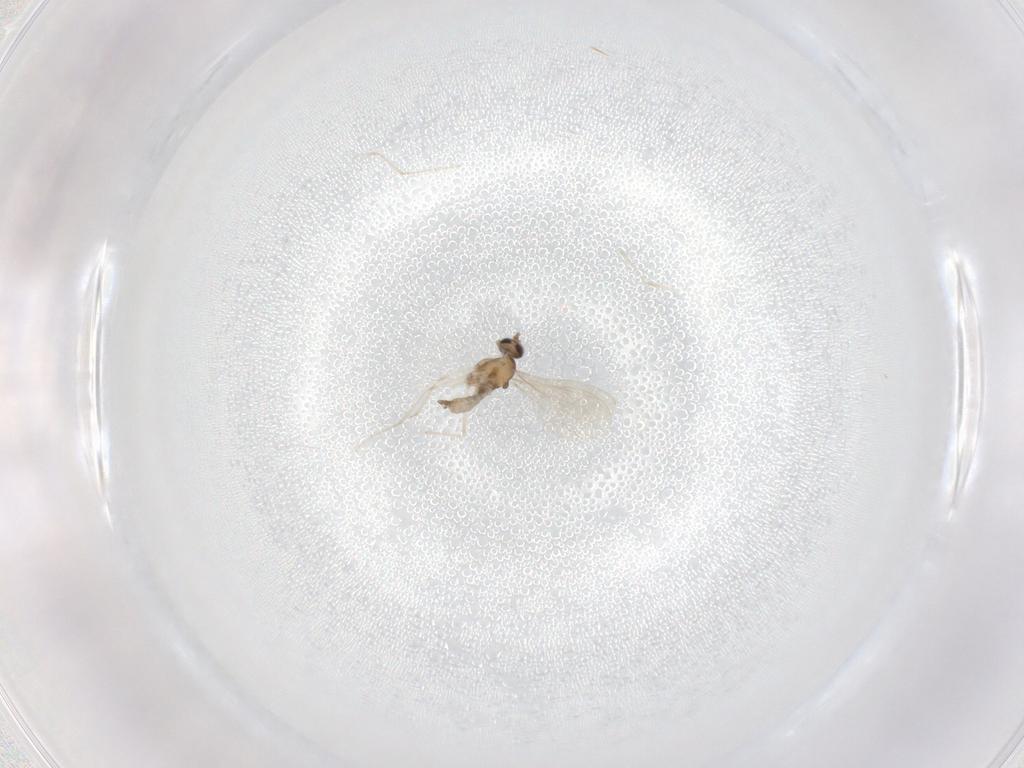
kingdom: Animalia
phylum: Arthropoda
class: Insecta
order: Diptera
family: Cecidomyiidae
